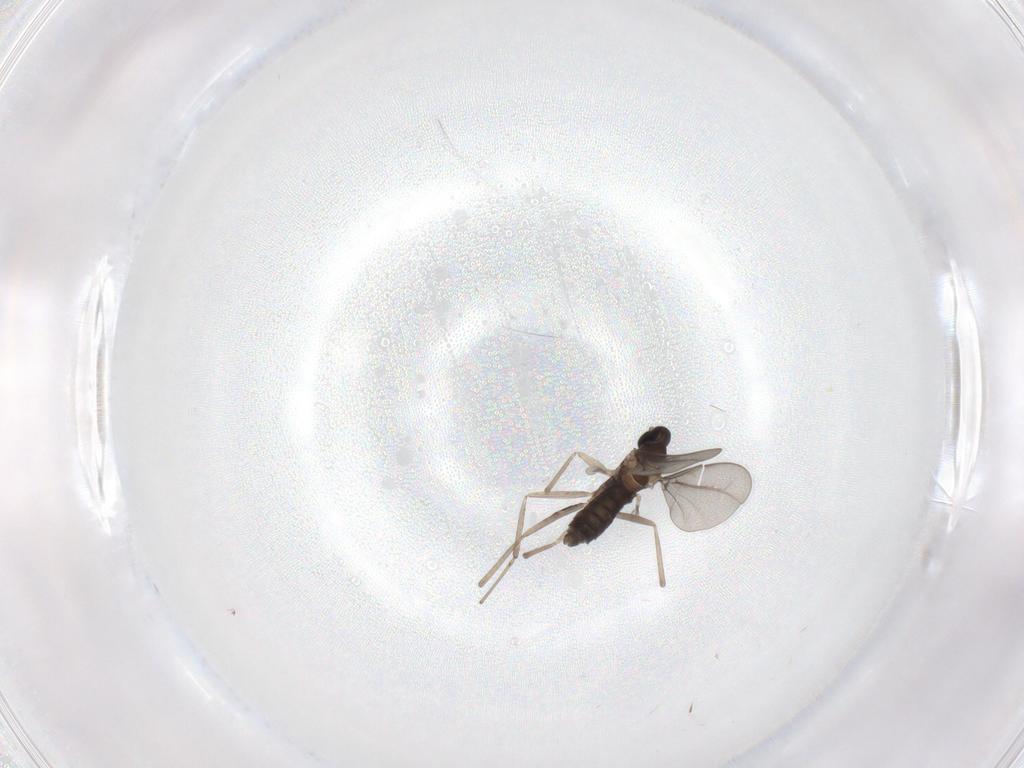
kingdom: Animalia
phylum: Arthropoda
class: Insecta
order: Diptera
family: Cecidomyiidae
